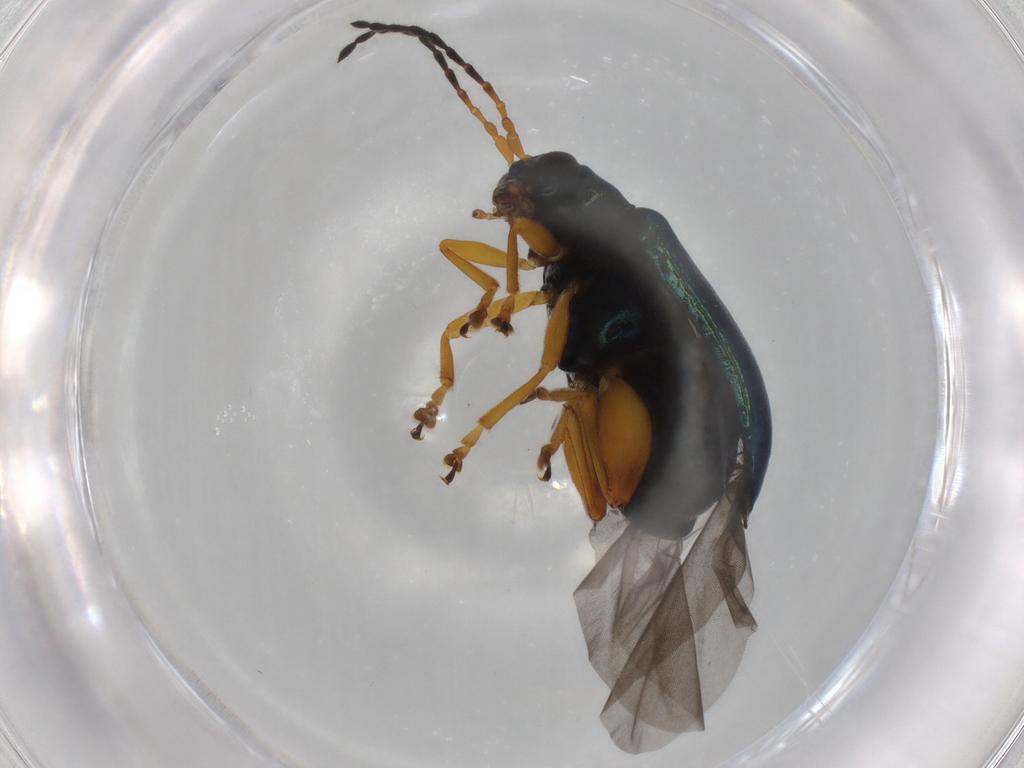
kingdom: Animalia
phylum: Arthropoda
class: Insecta
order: Coleoptera
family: Chrysomelidae
